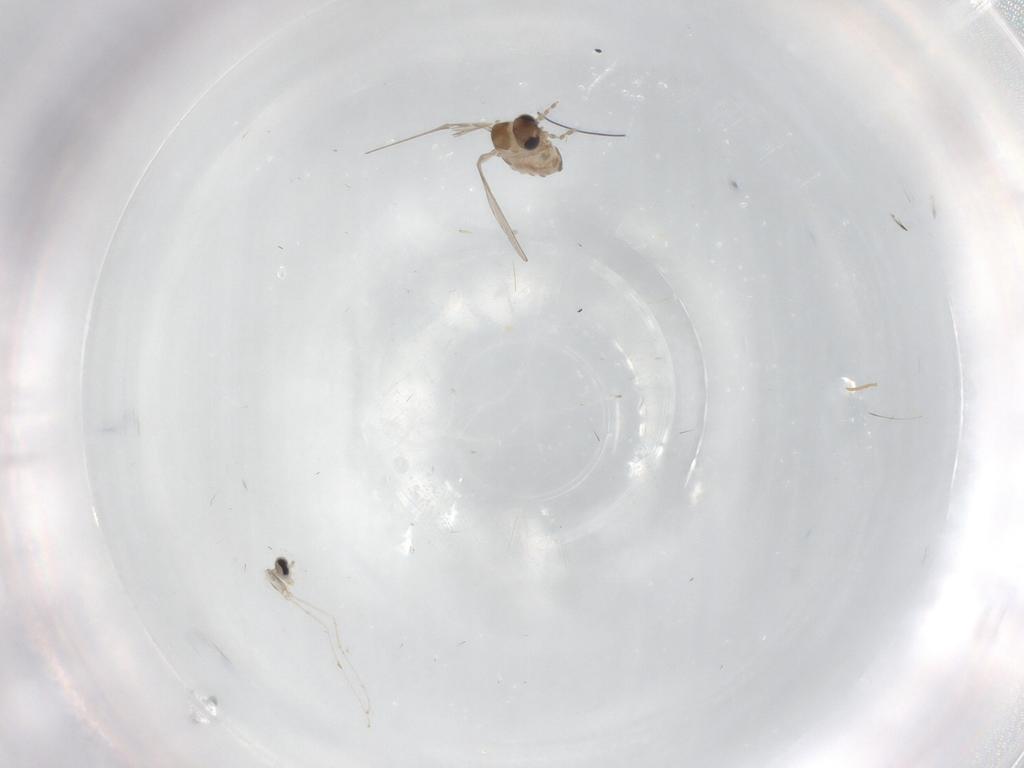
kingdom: Animalia
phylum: Arthropoda
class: Insecta
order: Diptera
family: Cecidomyiidae
